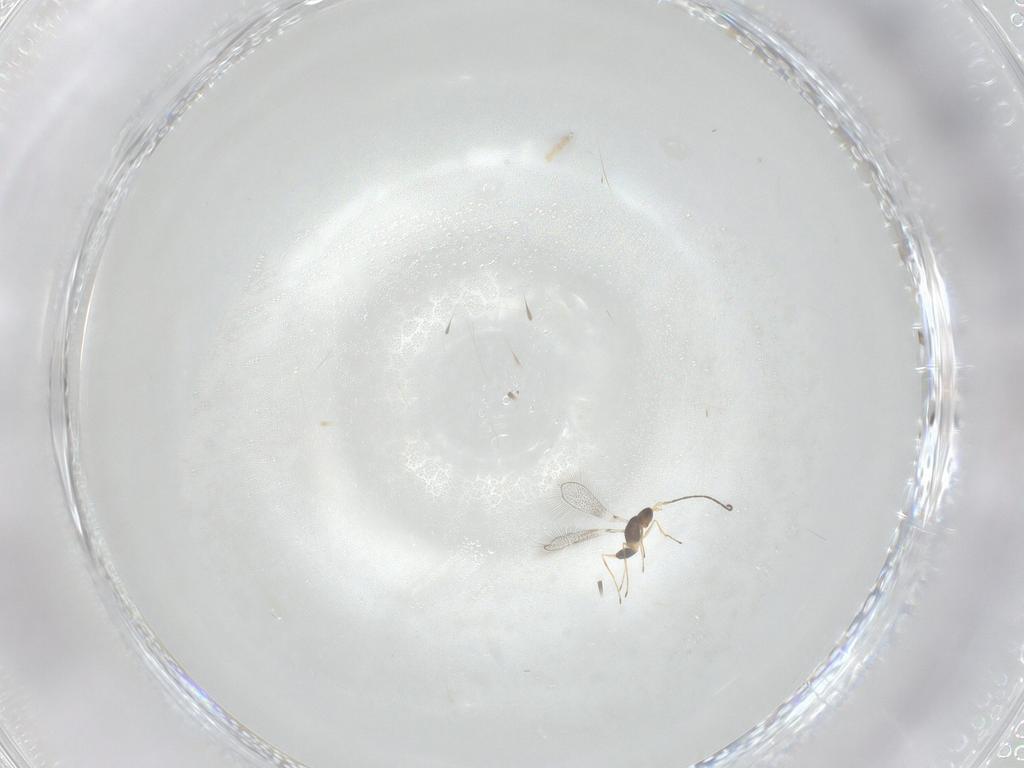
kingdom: Animalia
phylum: Arthropoda
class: Insecta
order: Hymenoptera
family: Mymaridae
